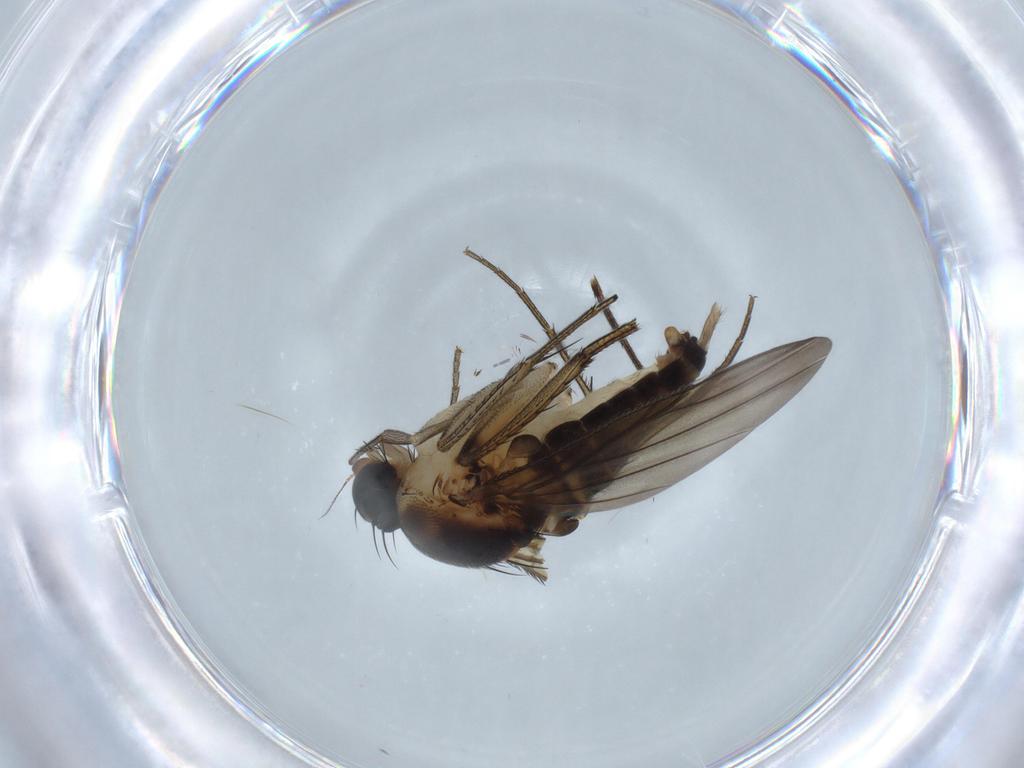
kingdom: Animalia
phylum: Arthropoda
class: Insecta
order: Diptera
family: Phoridae
